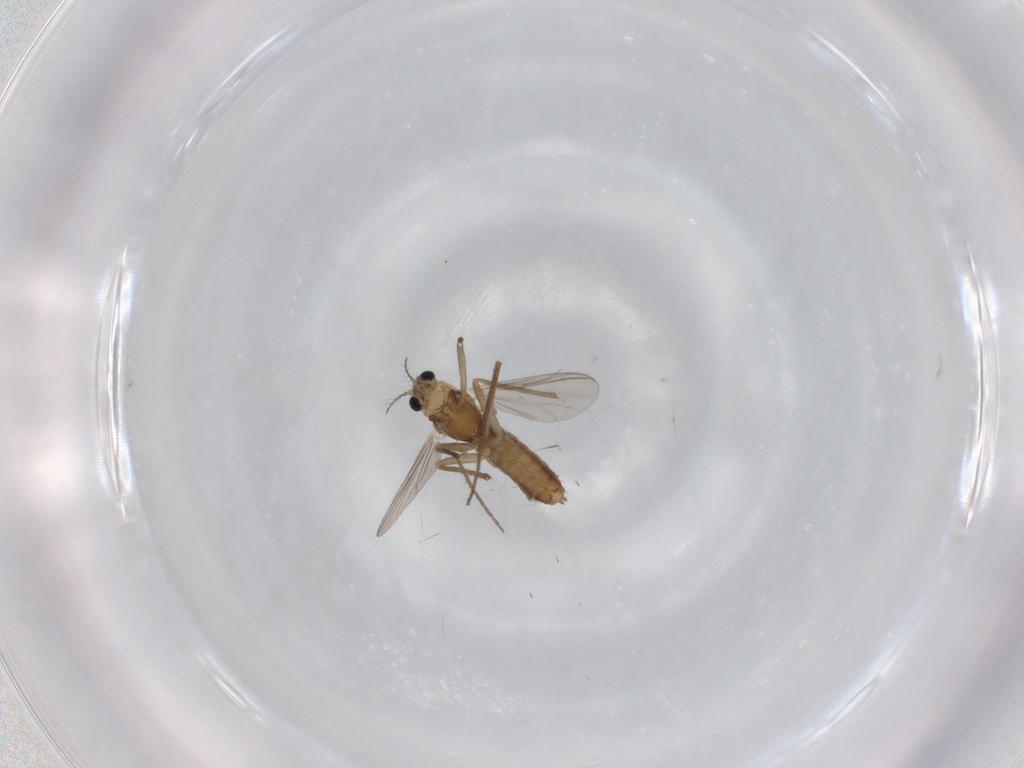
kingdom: Animalia
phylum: Arthropoda
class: Insecta
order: Diptera
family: Chironomidae
